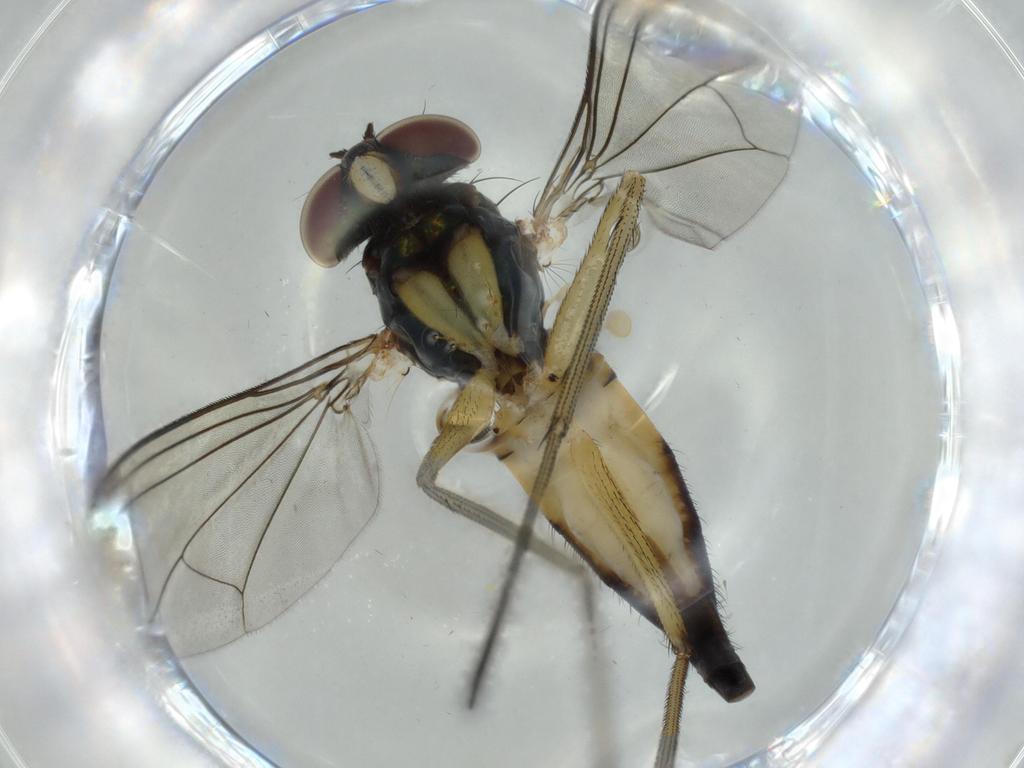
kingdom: Animalia
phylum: Arthropoda
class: Insecta
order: Diptera
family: Dolichopodidae
